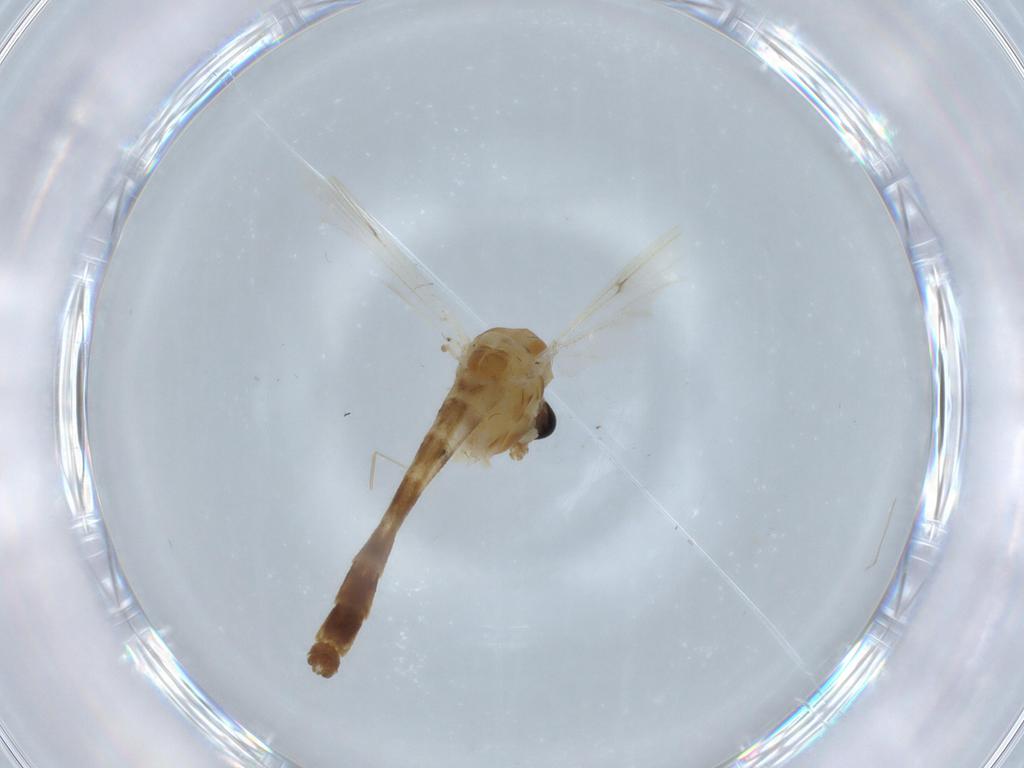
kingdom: Animalia
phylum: Arthropoda
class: Insecta
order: Diptera
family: Chironomidae
